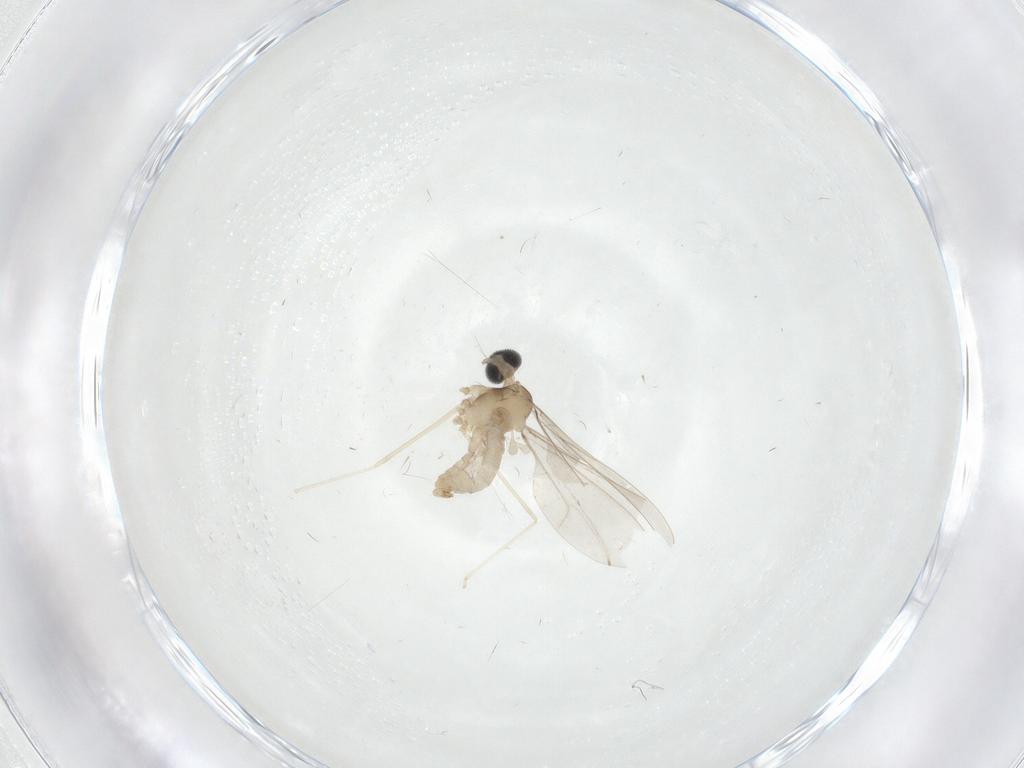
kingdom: Animalia
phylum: Arthropoda
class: Insecta
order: Diptera
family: Cecidomyiidae
